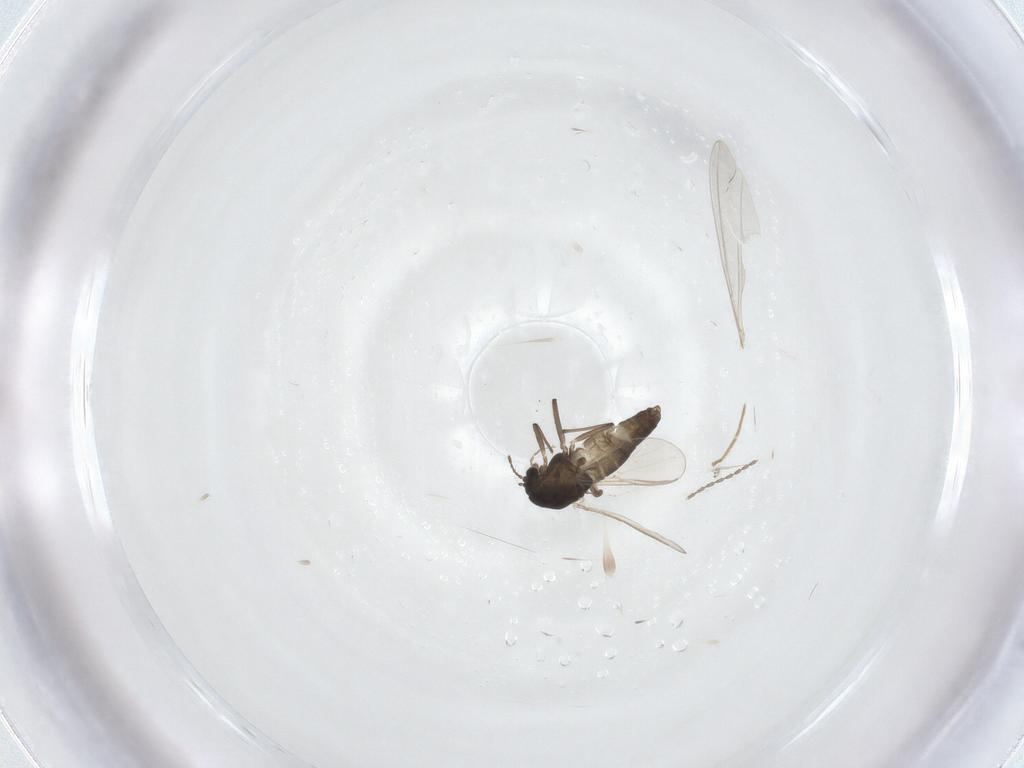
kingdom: Animalia
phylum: Arthropoda
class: Insecta
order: Diptera
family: Chironomidae
